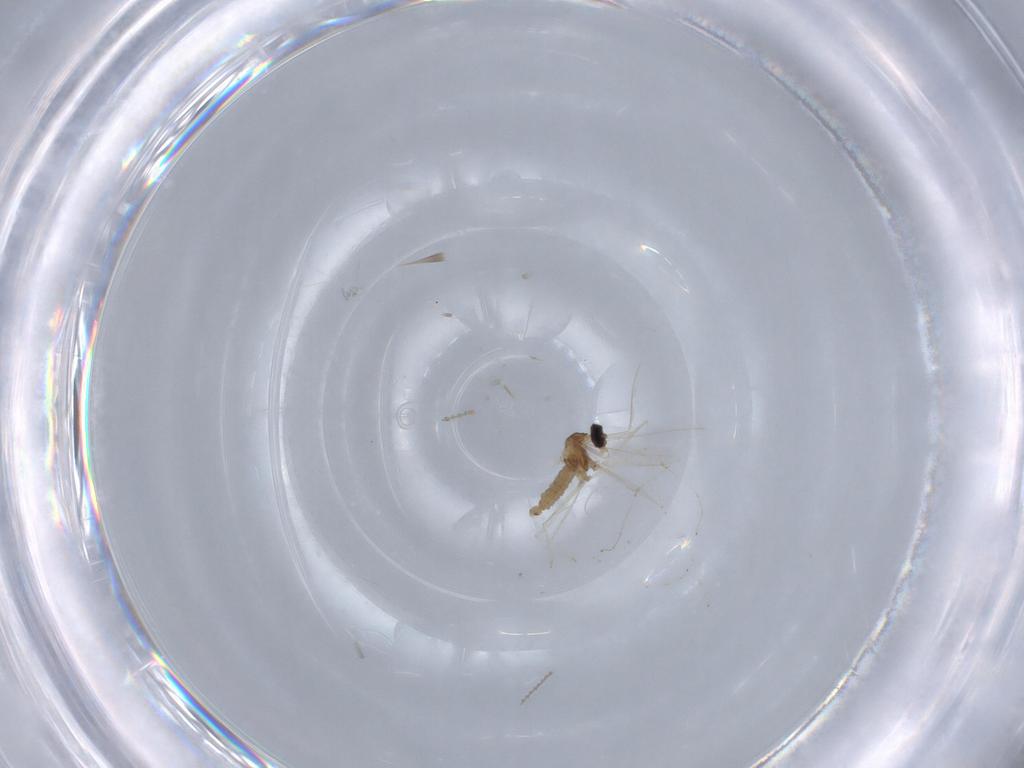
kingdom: Animalia
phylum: Arthropoda
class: Insecta
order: Diptera
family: Cecidomyiidae
